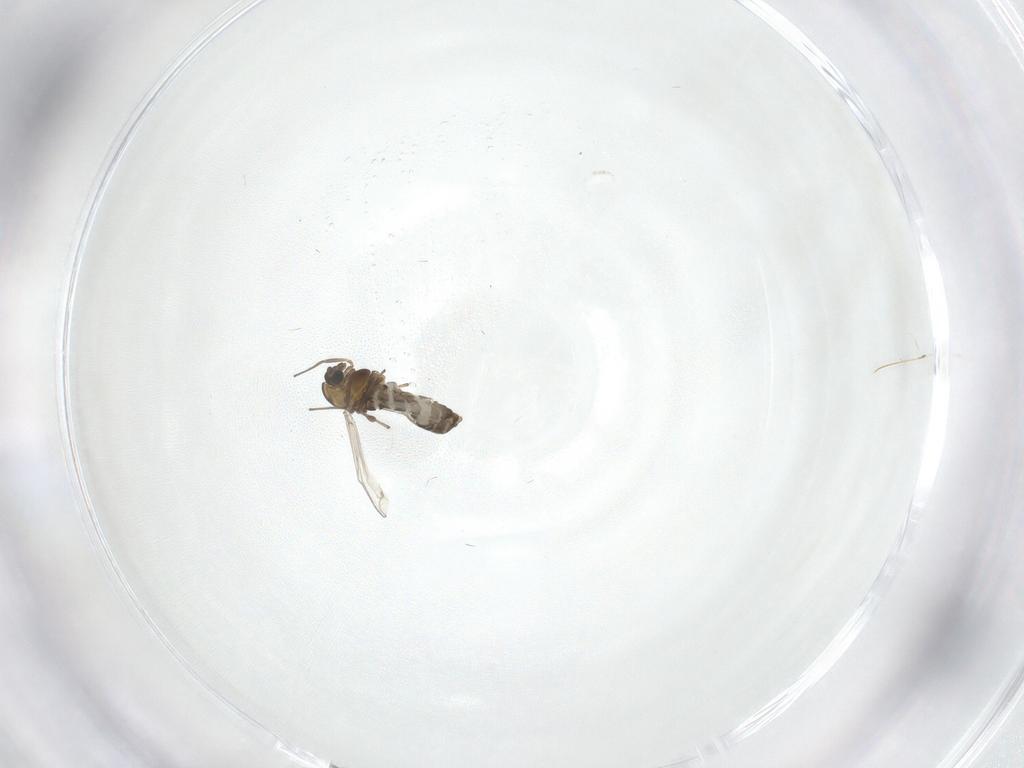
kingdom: Animalia
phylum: Arthropoda
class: Insecta
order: Diptera
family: Chironomidae
